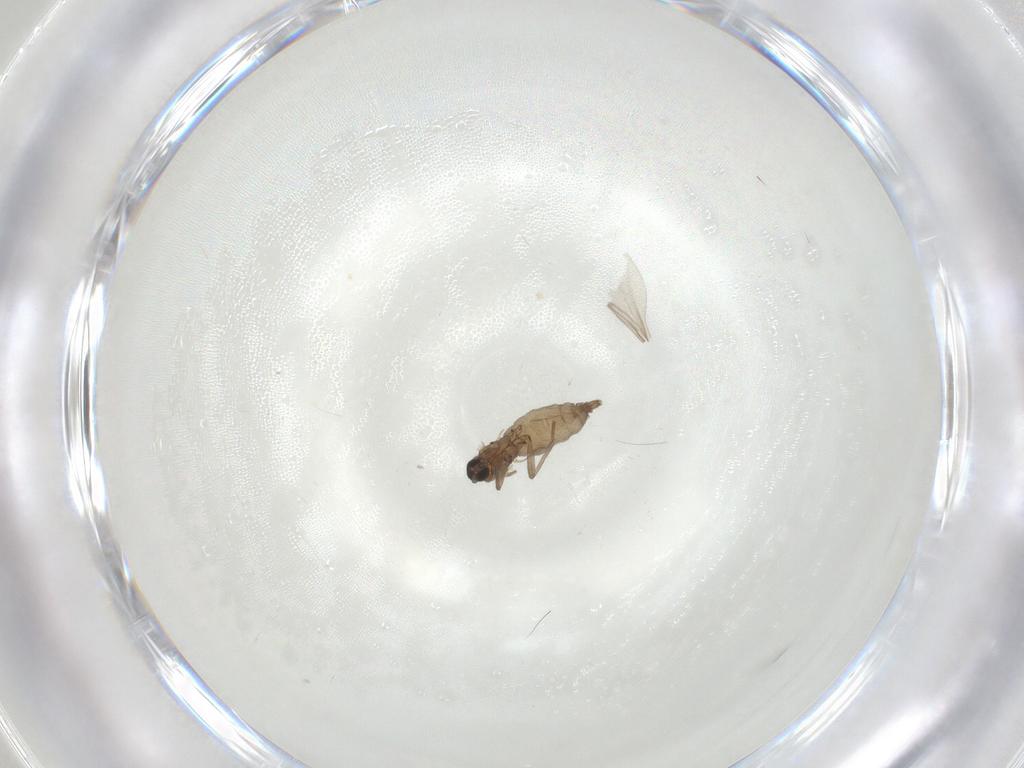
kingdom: Animalia
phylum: Arthropoda
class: Insecta
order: Diptera
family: Sciaridae
